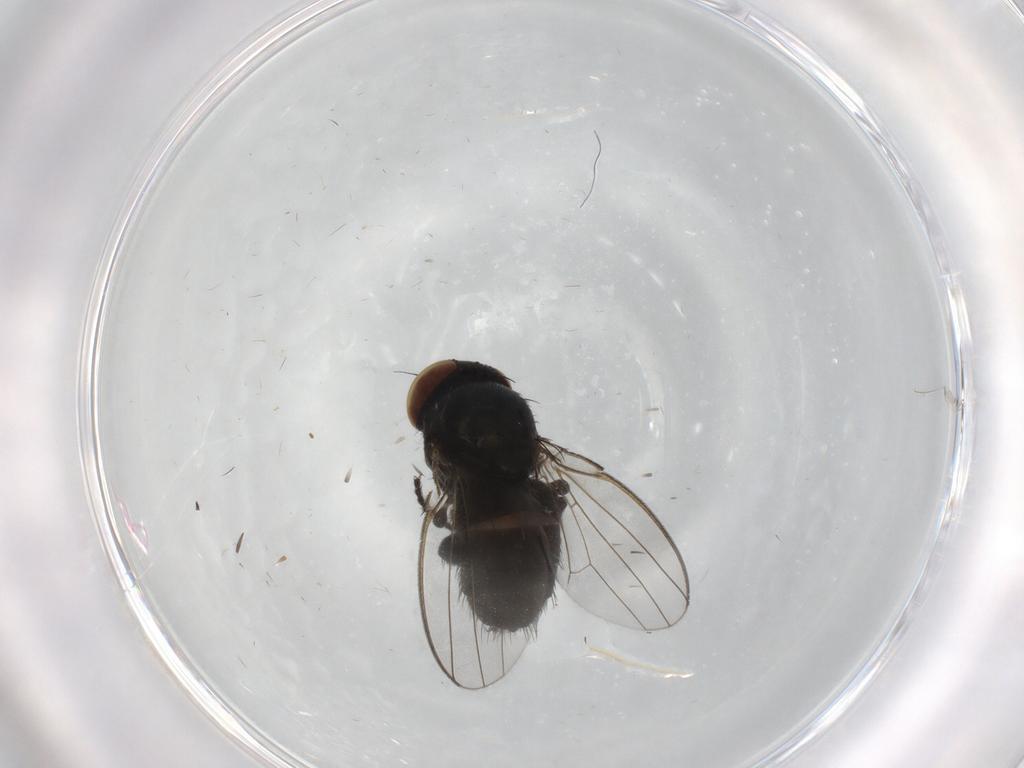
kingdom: Animalia
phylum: Arthropoda
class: Insecta
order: Diptera
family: Milichiidae
